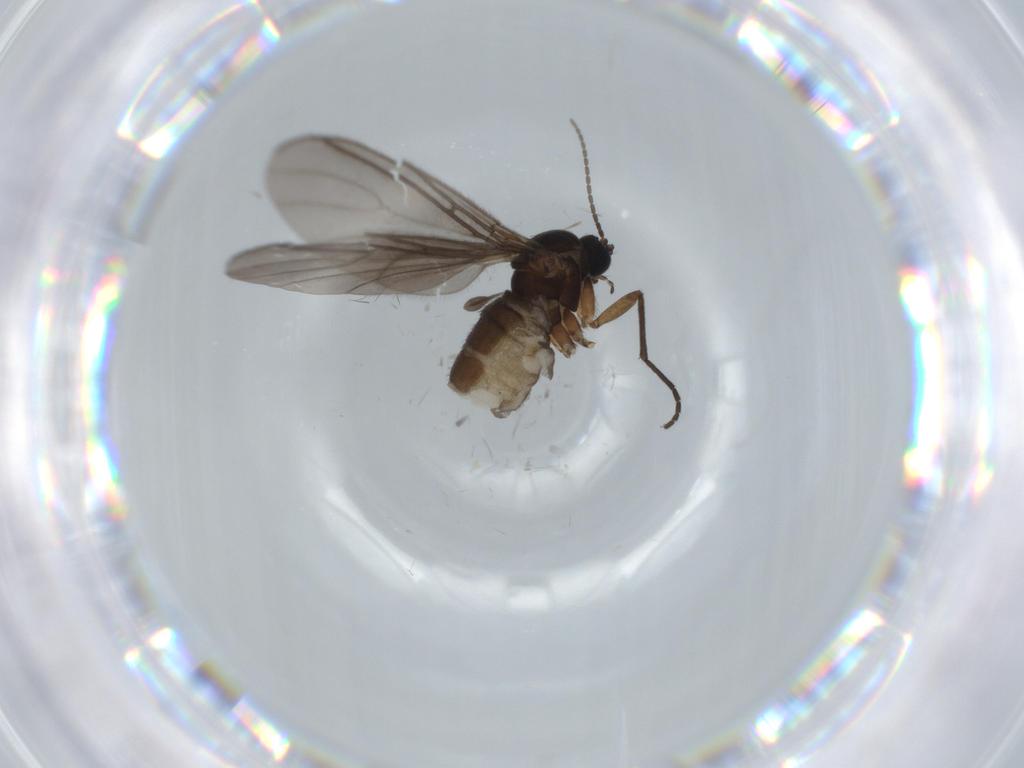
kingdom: Animalia
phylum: Arthropoda
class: Insecta
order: Diptera
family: Sciaridae
